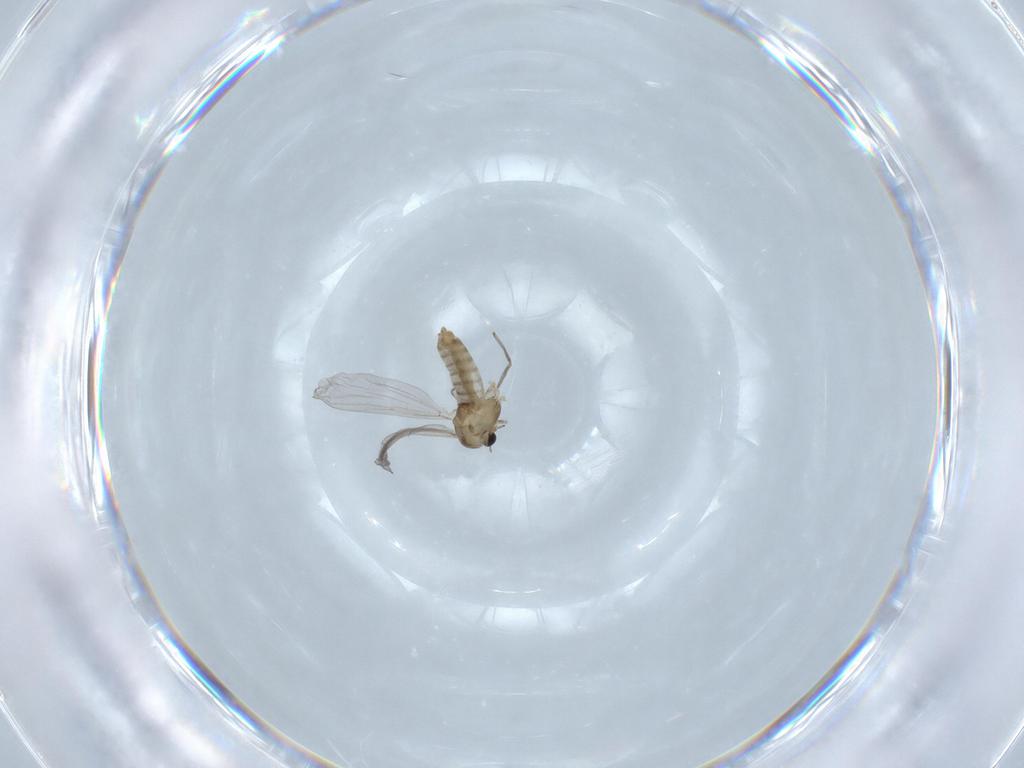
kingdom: Animalia
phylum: Arthropoda
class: Insecta
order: Diptera
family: Chironomidae
